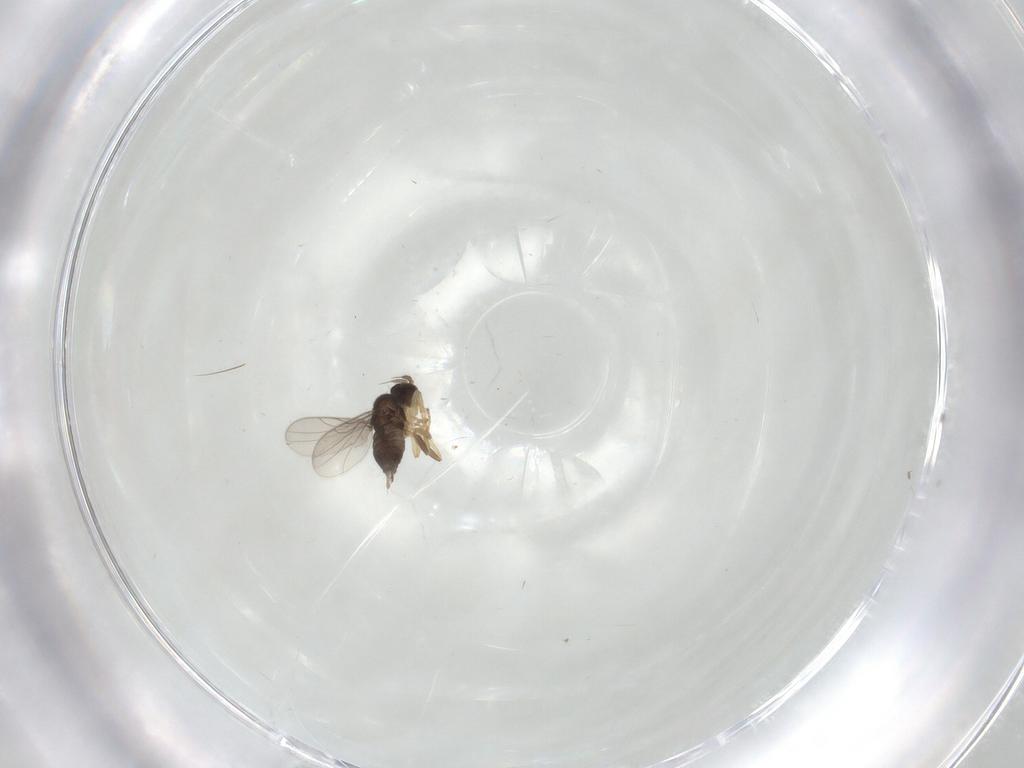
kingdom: Animalia
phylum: Arthropoda
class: Insecta
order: Diptera
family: Hybotidae
